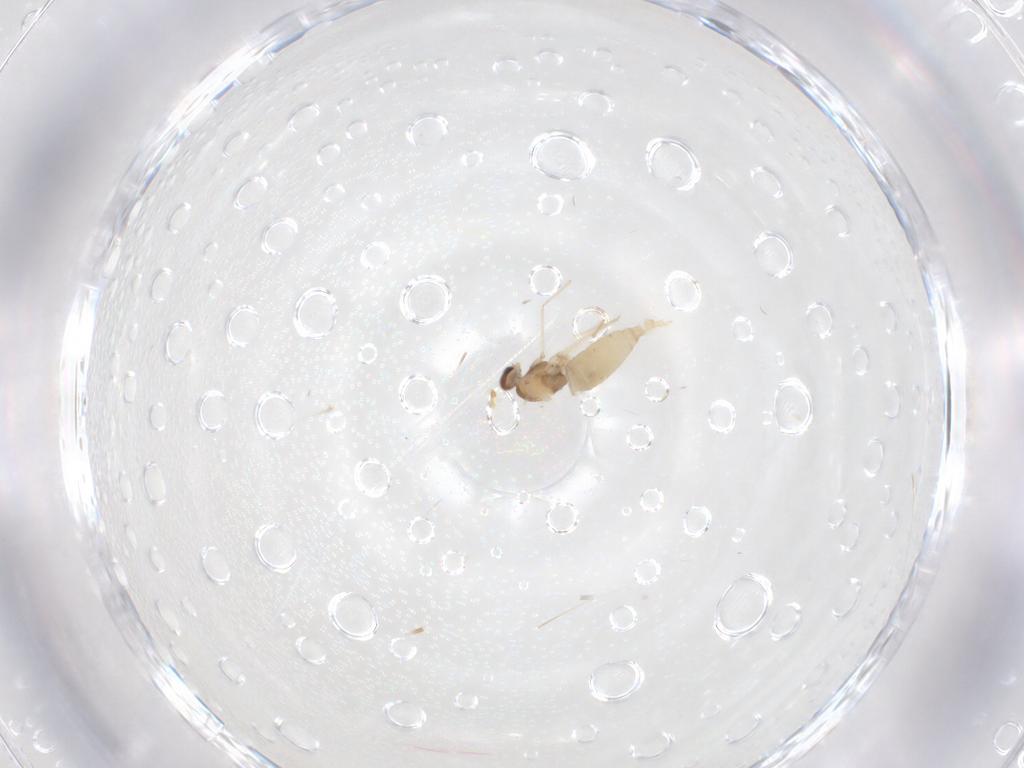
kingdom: Animalia
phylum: Arthropoda
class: Insecta
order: Diptera
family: Cecidomyiidae
